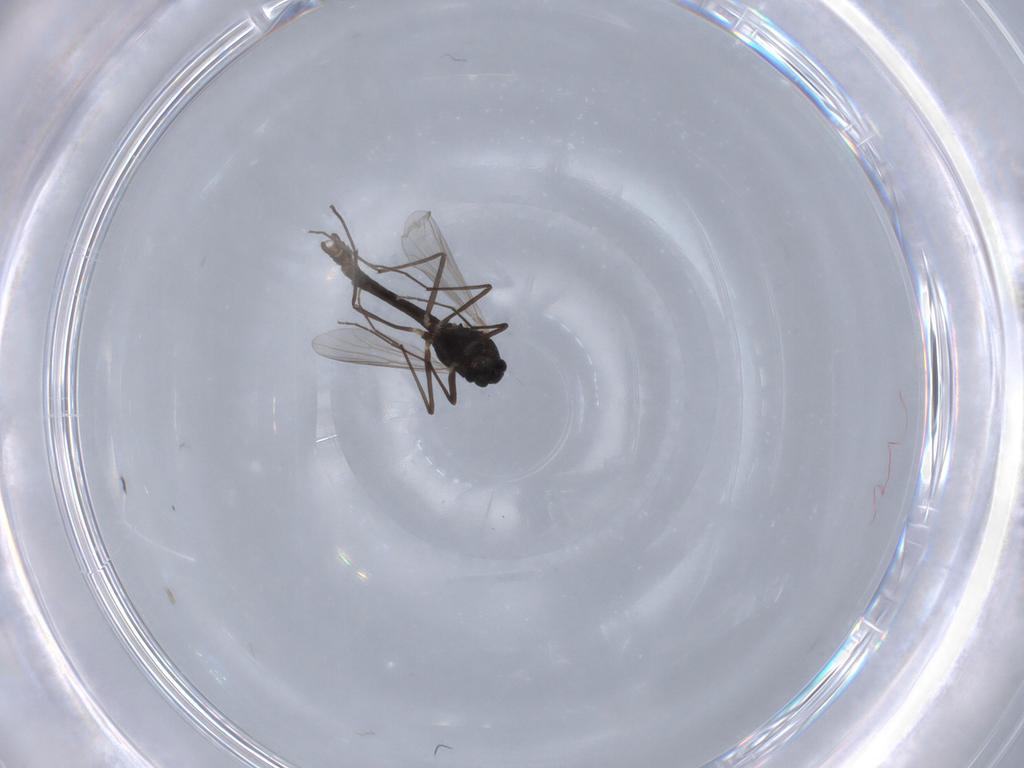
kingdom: Animalia
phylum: Arthropoda
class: Insecta
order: Diptera
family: Chironomidae
